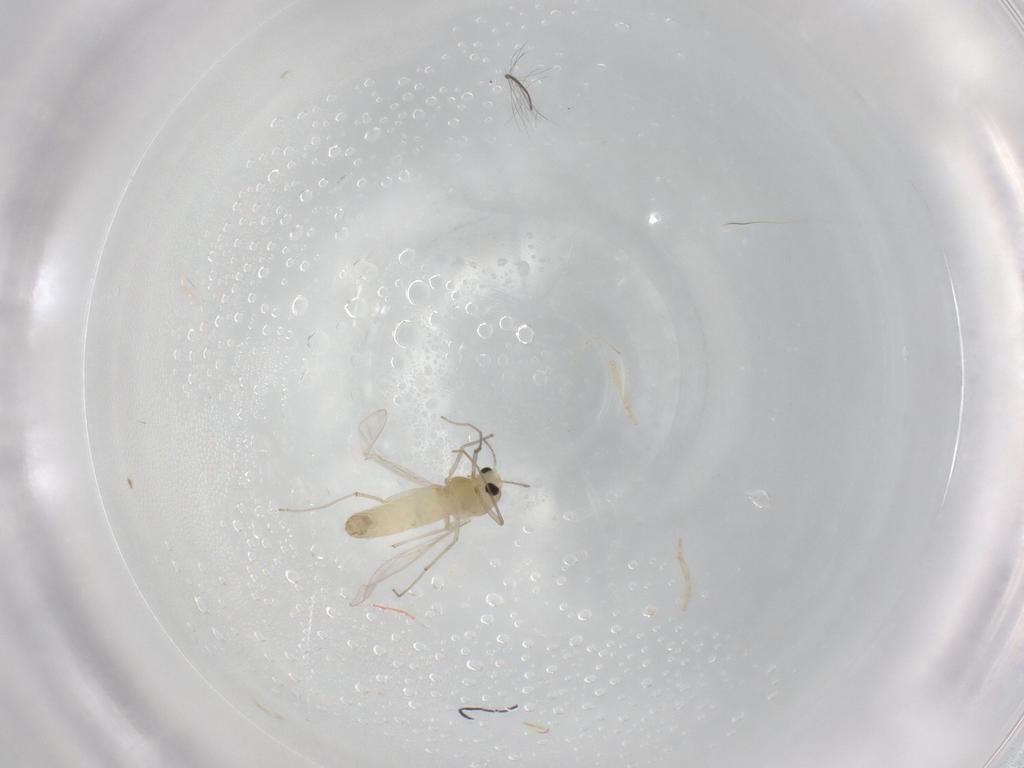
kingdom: Animalia
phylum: Arthropoda
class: Insecta
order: Diptera
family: Chironomidae
